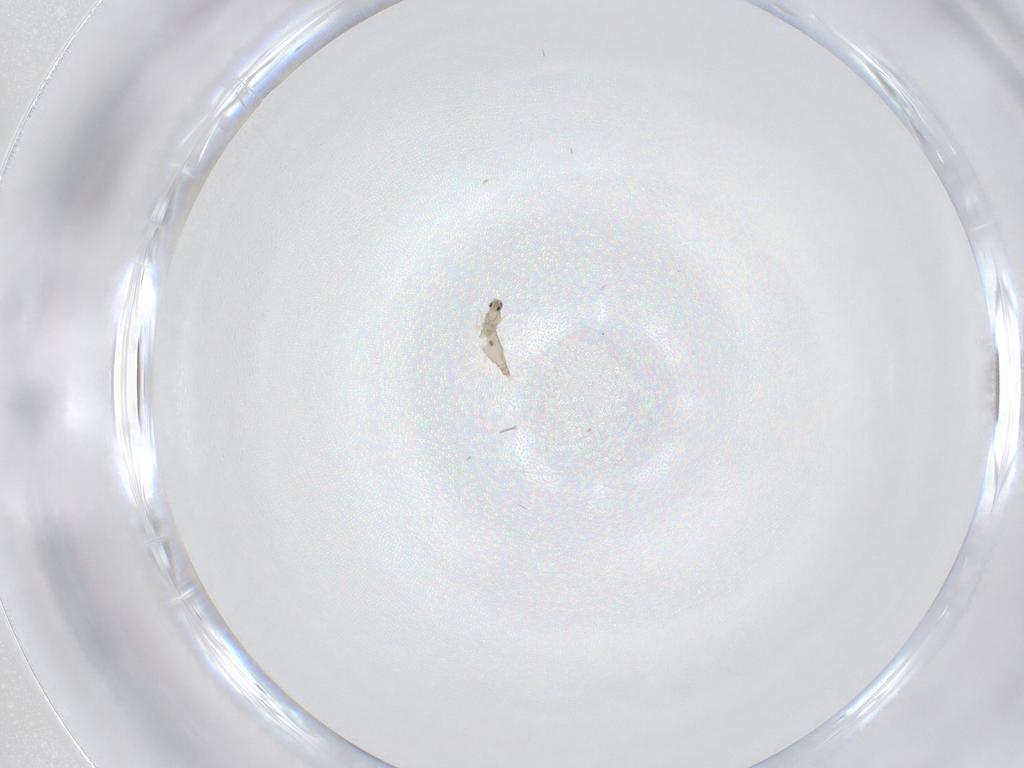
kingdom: Animalia
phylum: Arthropoda
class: Insecta
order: Diptera
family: Cecidomyiidae
